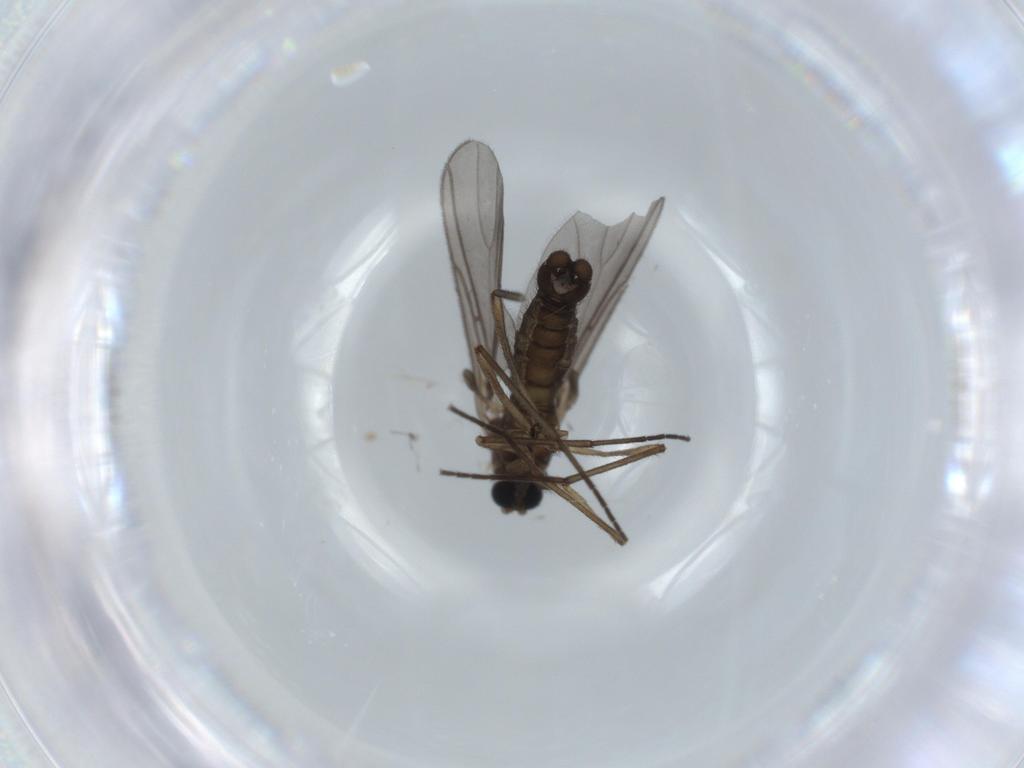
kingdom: Animalia
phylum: Arthropoda
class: Insecta
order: Diptera
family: Sciaridae
